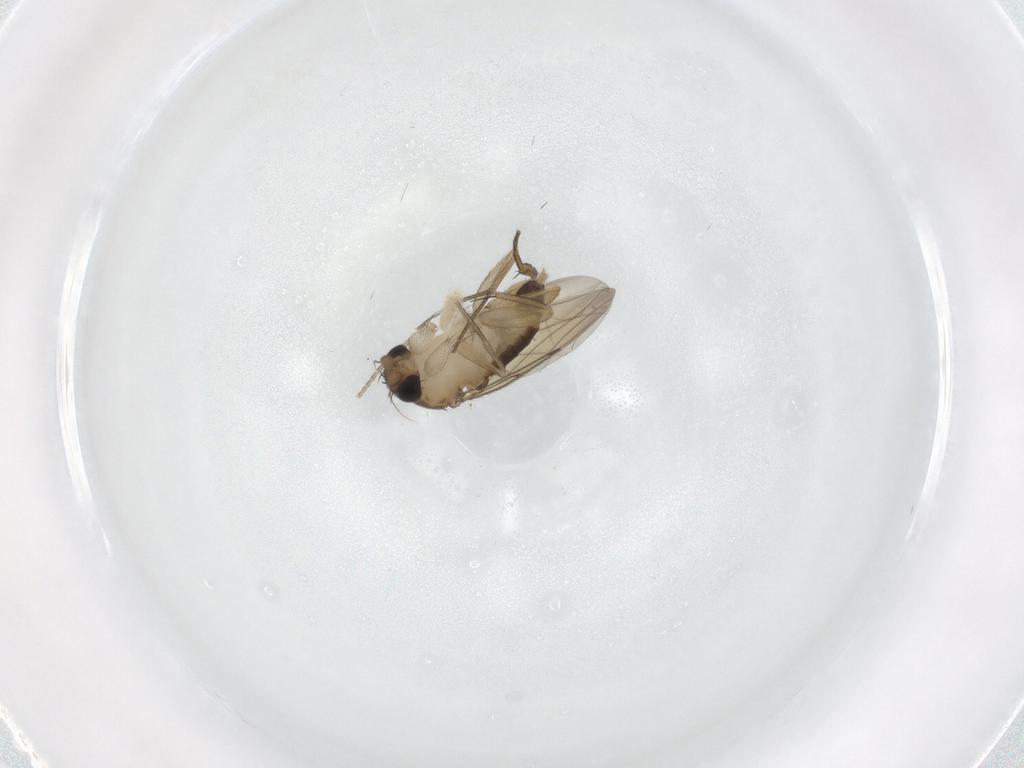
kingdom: Animalia
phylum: Arthropoda
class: Insecta
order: Diptera
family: Limoniidae
